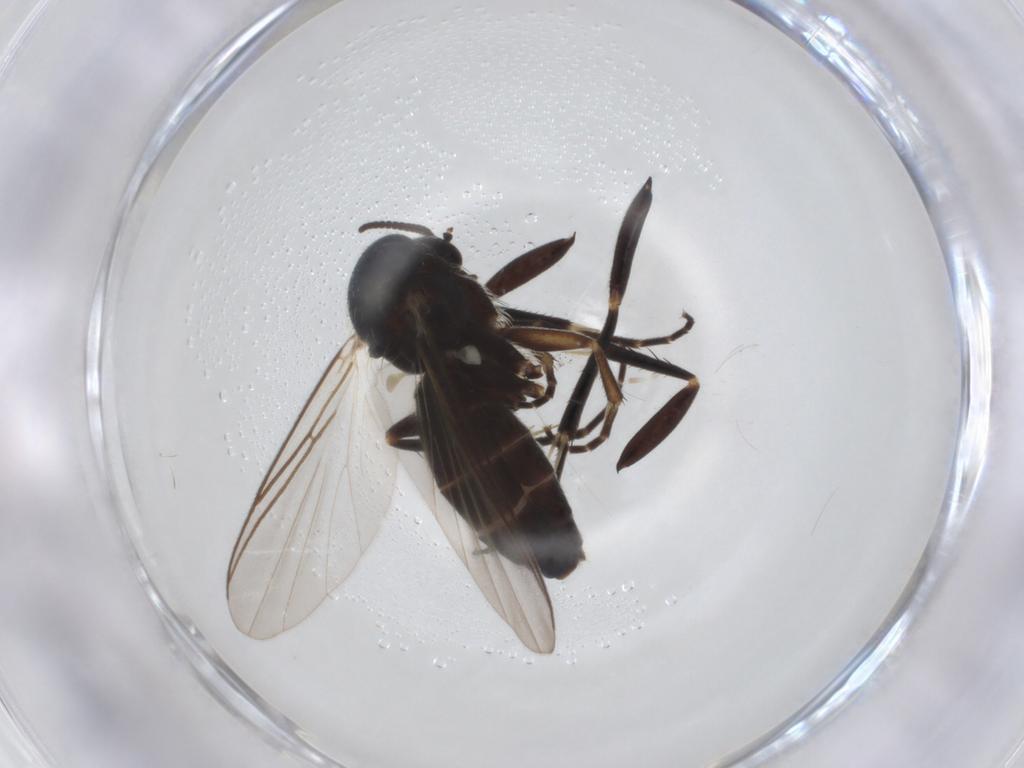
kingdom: Animalia
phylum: Arthropoda
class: Insecta
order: Diptera
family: Mycetophilidae
